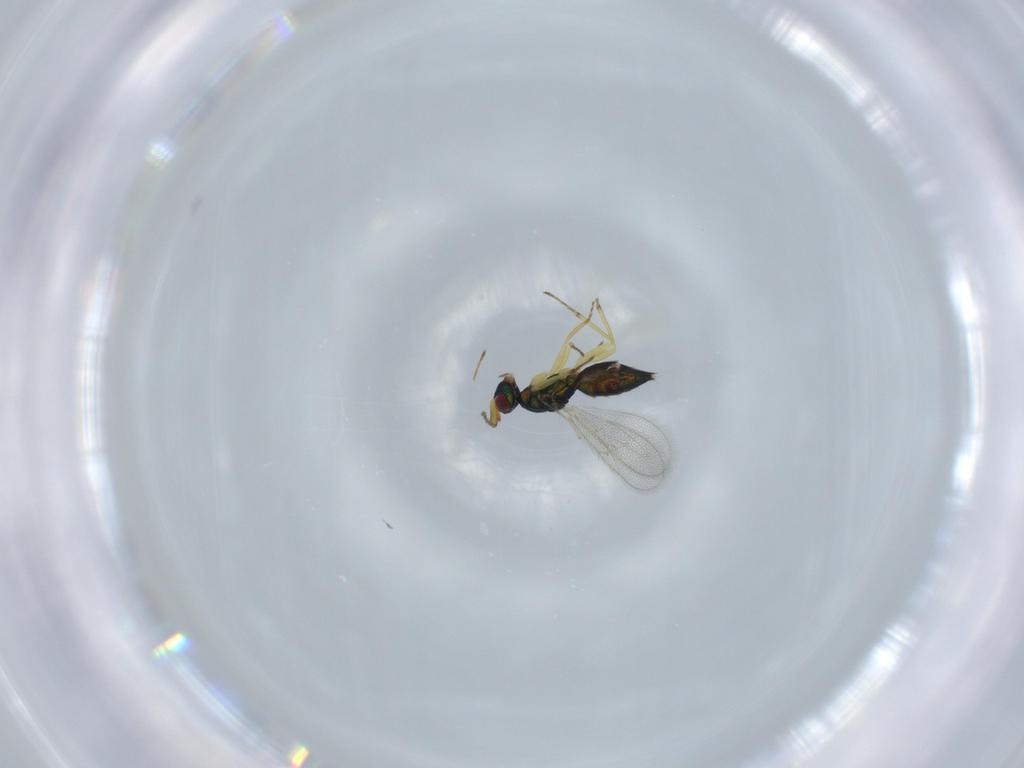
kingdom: Animalia
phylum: Arthropoda
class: Insecta
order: Hymenoptera
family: Eulophidae
